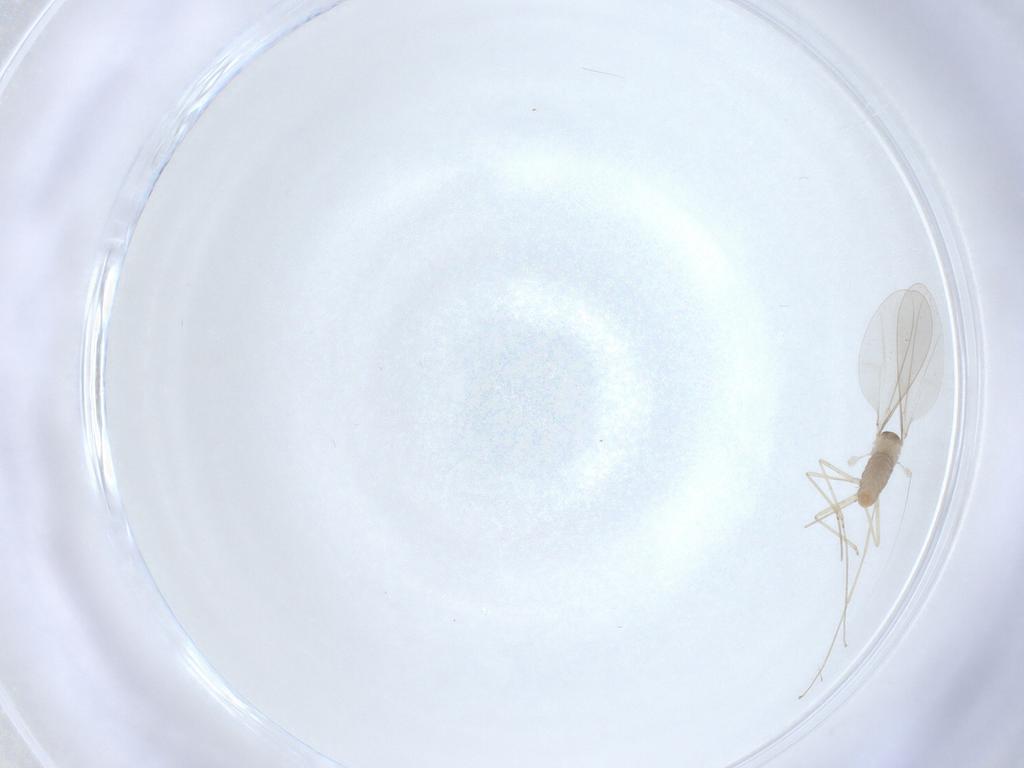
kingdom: Animalia
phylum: Arthropoda
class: Insecta
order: Diptera
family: Cecidomyiidae
